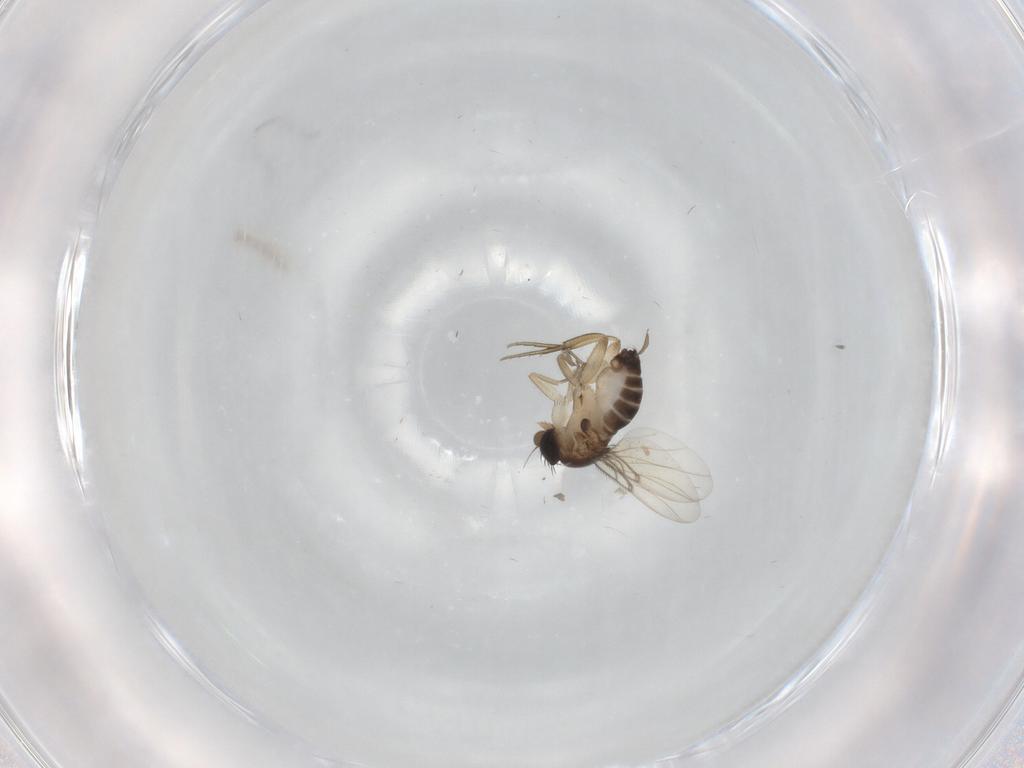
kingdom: Animalia
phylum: Arthropoda
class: Insecta
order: Diptera
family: Phoridae
